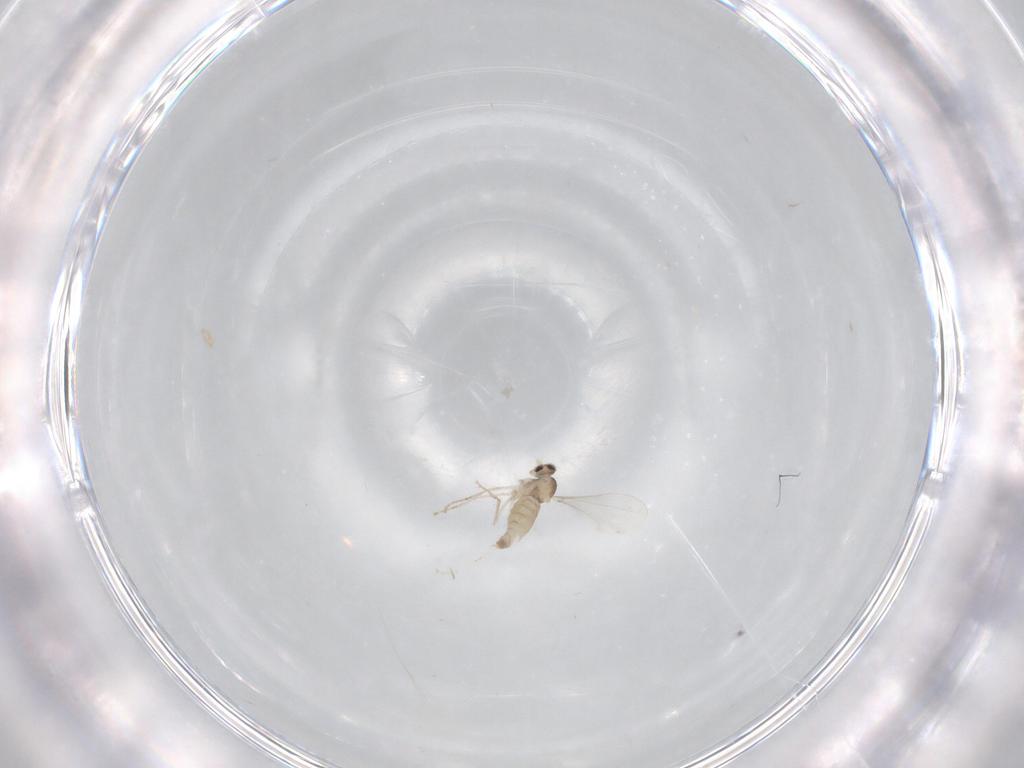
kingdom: Animalia
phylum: Arthropoda
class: Insecta
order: Diptera
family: Cecidomyiidae
